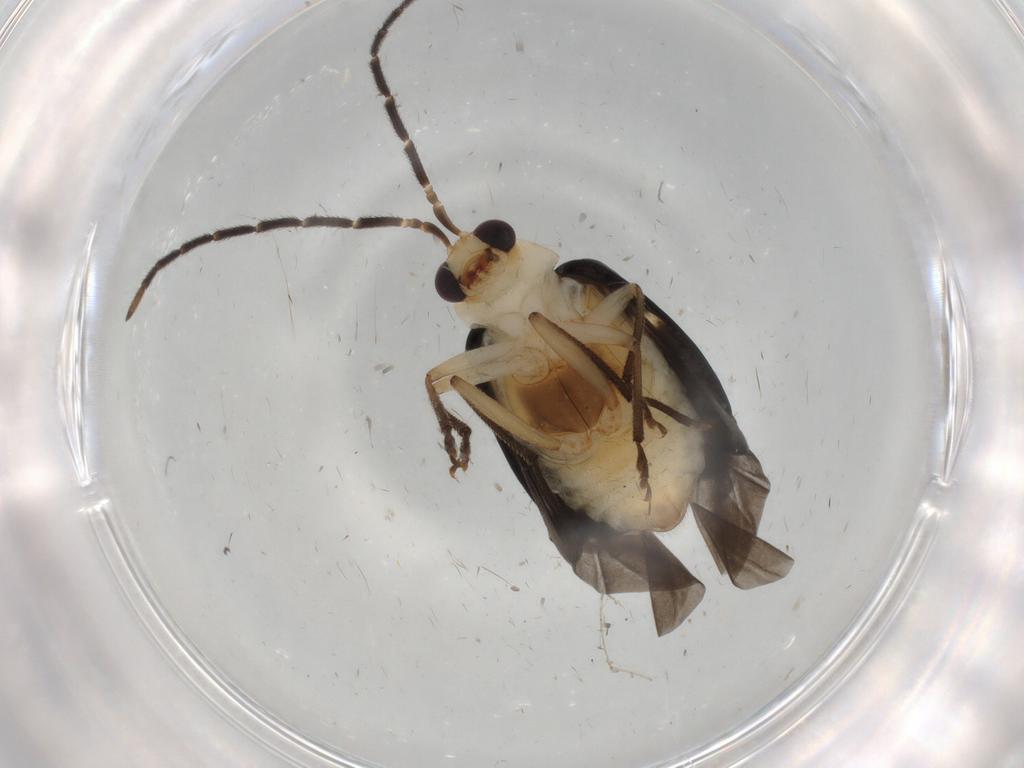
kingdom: Animalia
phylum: Arthropoda
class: Insecta
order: Coleoptera
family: Chrysomelidae
